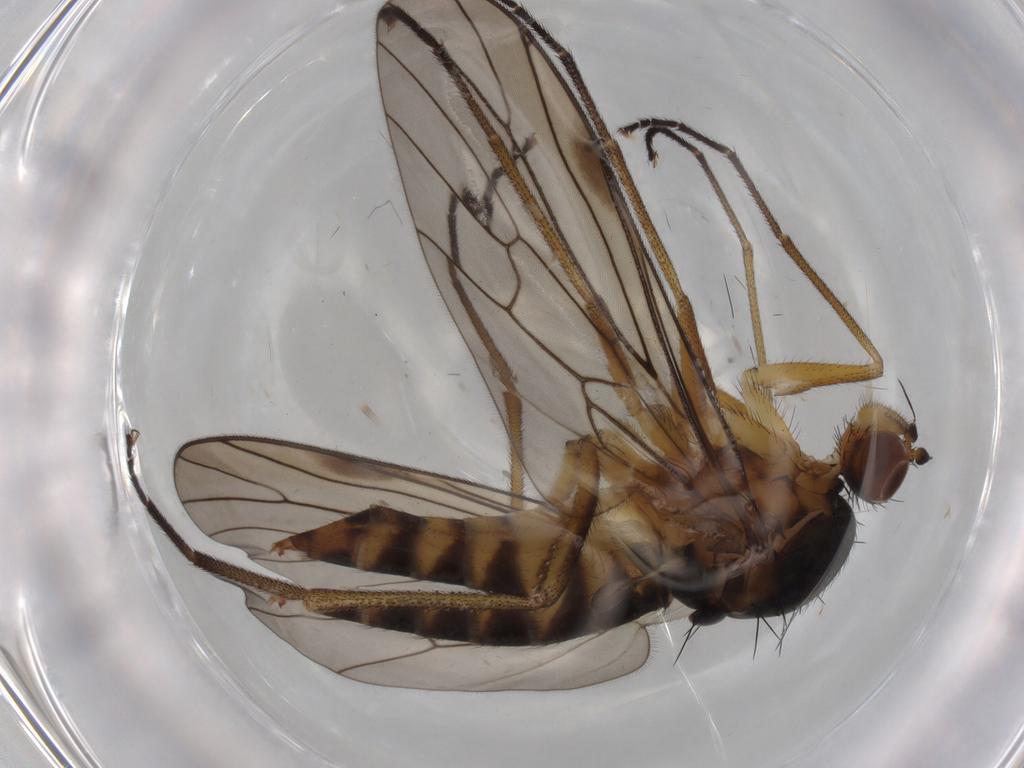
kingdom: Animalia
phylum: Arthropoda
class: Insecta
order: Diptera
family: Brachystomatidae
